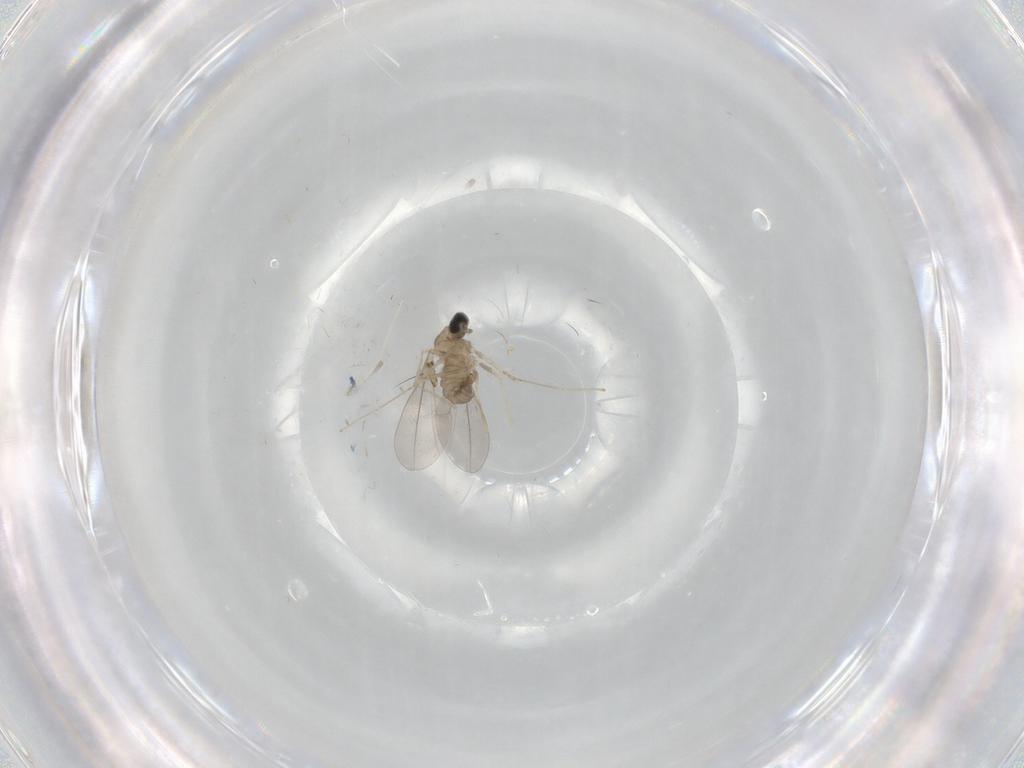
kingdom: Animalia
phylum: Arthropoda
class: Insecta
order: Diptera
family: Cecidomyiidae
